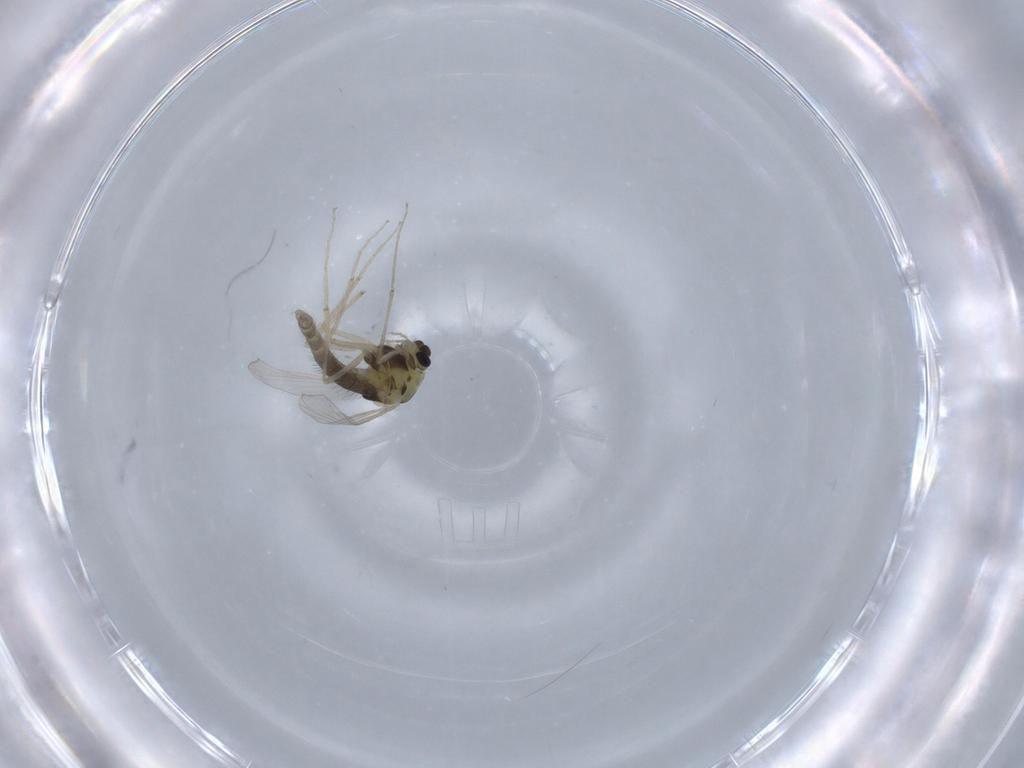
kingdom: Animalia
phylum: Arthropoda
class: Insecta
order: Diptera
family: Chironomidae
